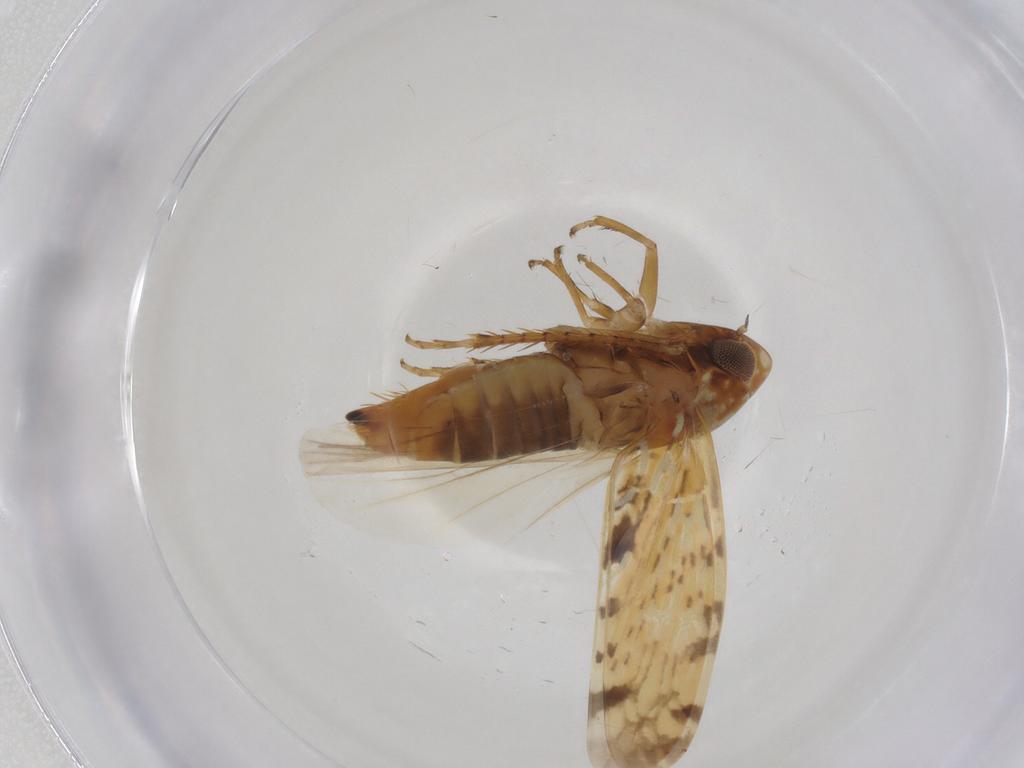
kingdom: Animalia
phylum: Arthropoda
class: Insecta
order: Hemiptera
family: Cicadellidae
